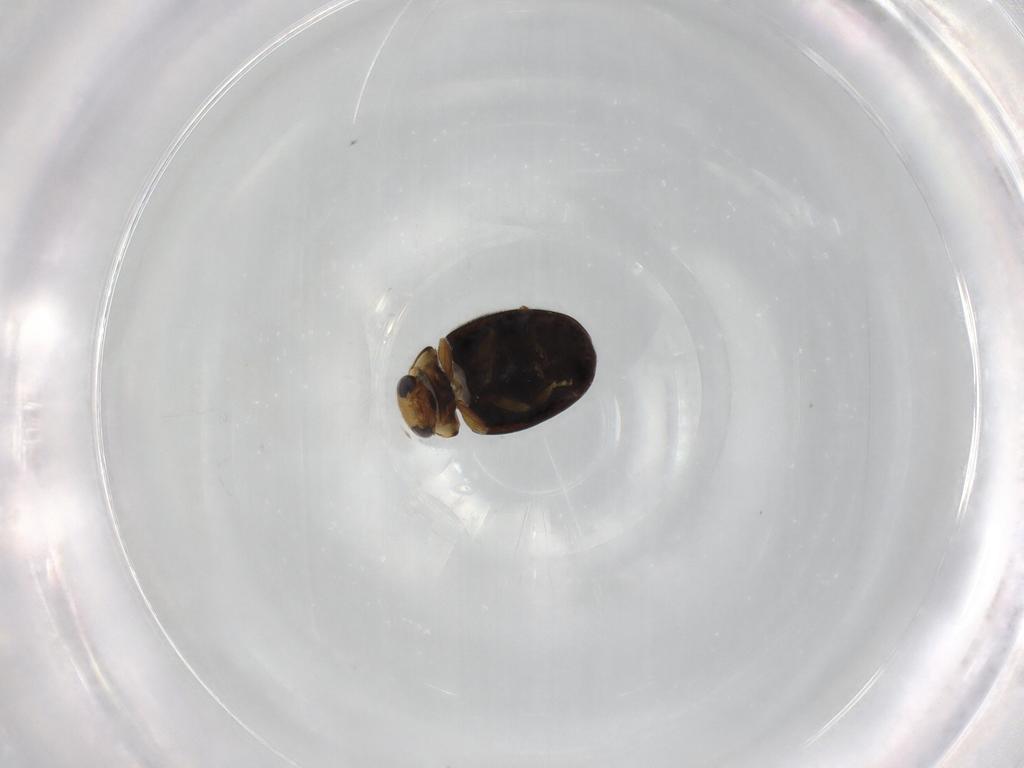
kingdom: Animalia
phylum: Arthropoda
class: Insecta
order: Coleoptera
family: Coccinellidae
